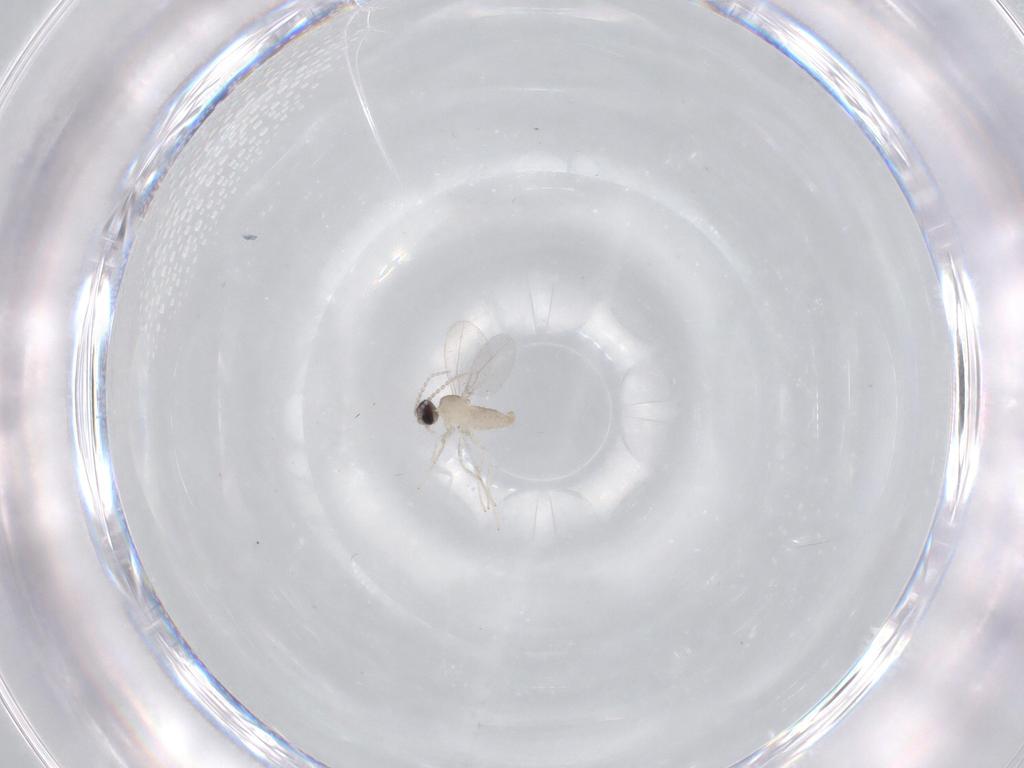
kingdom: Animalia
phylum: Arthropoda
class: Insecta
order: Diptera
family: Cecidomyiidae
